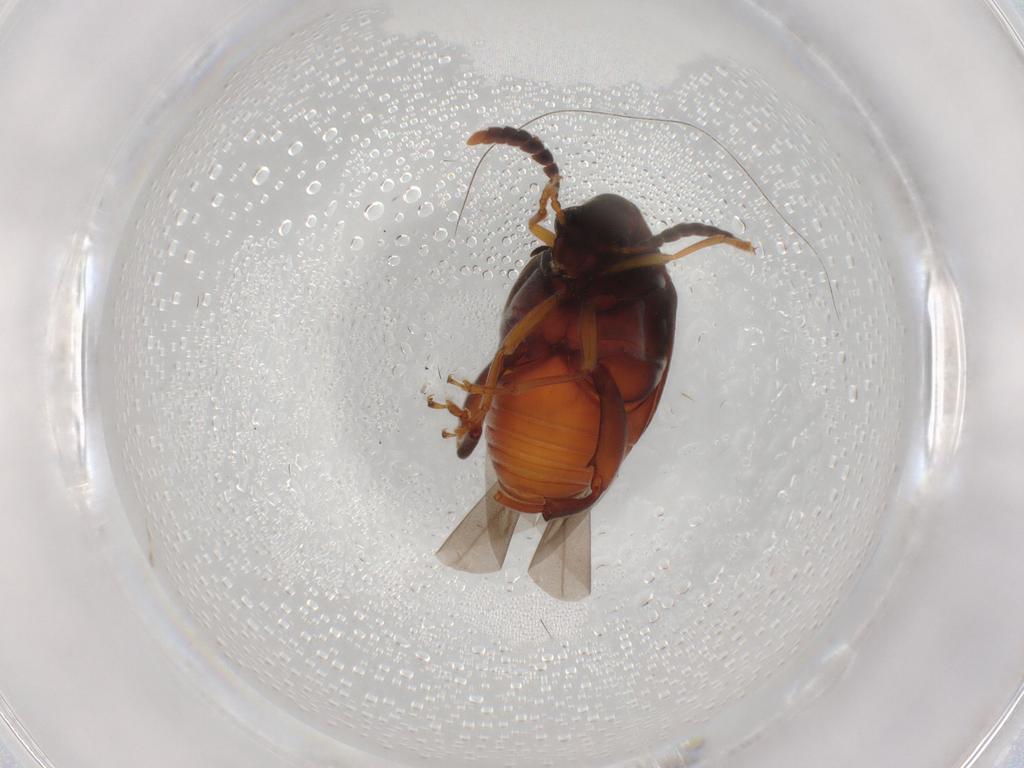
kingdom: Animalia
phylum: Arthropoda
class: Insecta
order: Coleoptera
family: Chrysomelidae
